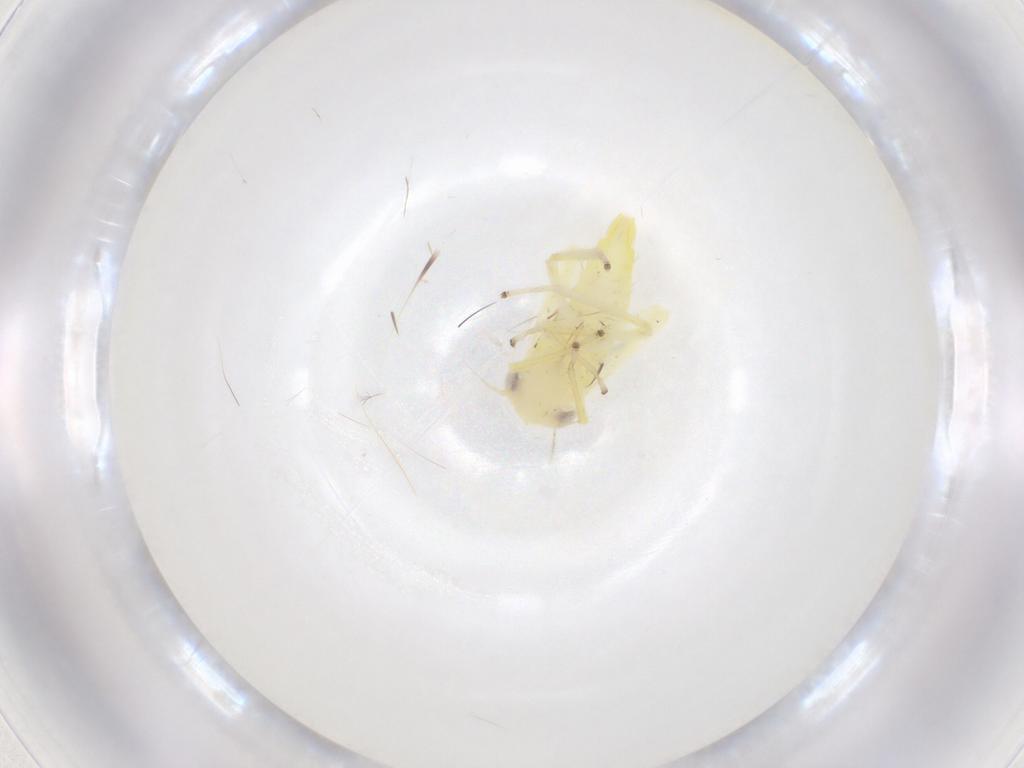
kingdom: Animalia
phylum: Arthropoda
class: Insecta
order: Hemiptera
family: Cicadellidae
